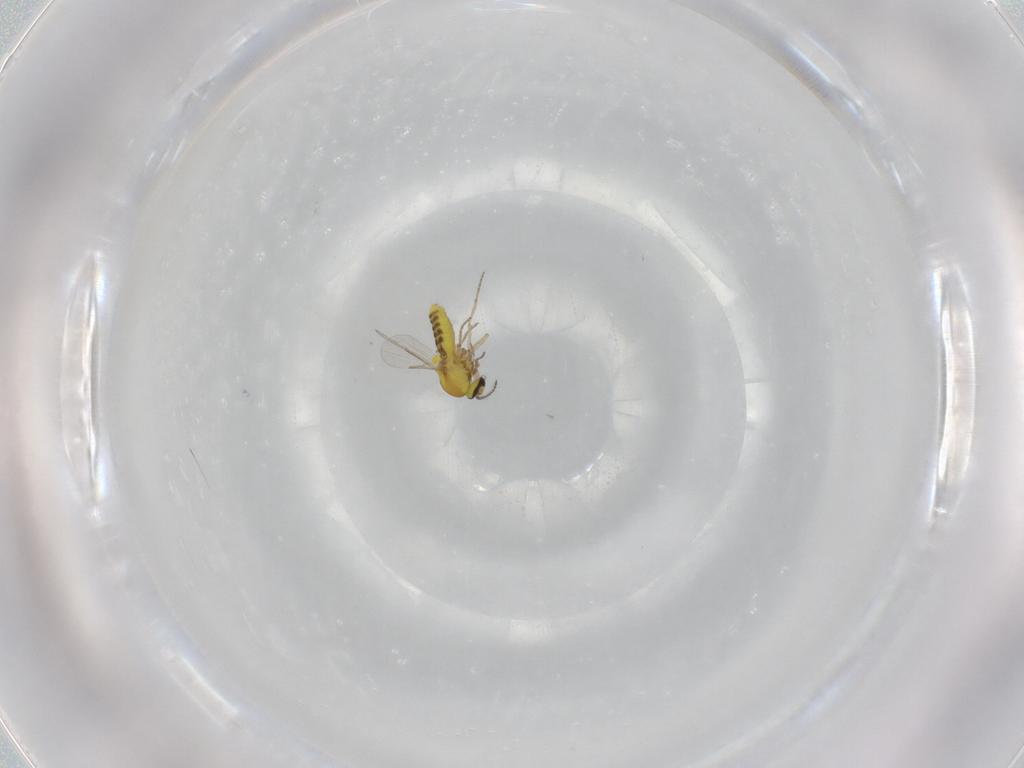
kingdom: Animalia
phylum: Arthropoda
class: Insecta
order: Diptera
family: Ceratopogonidae
